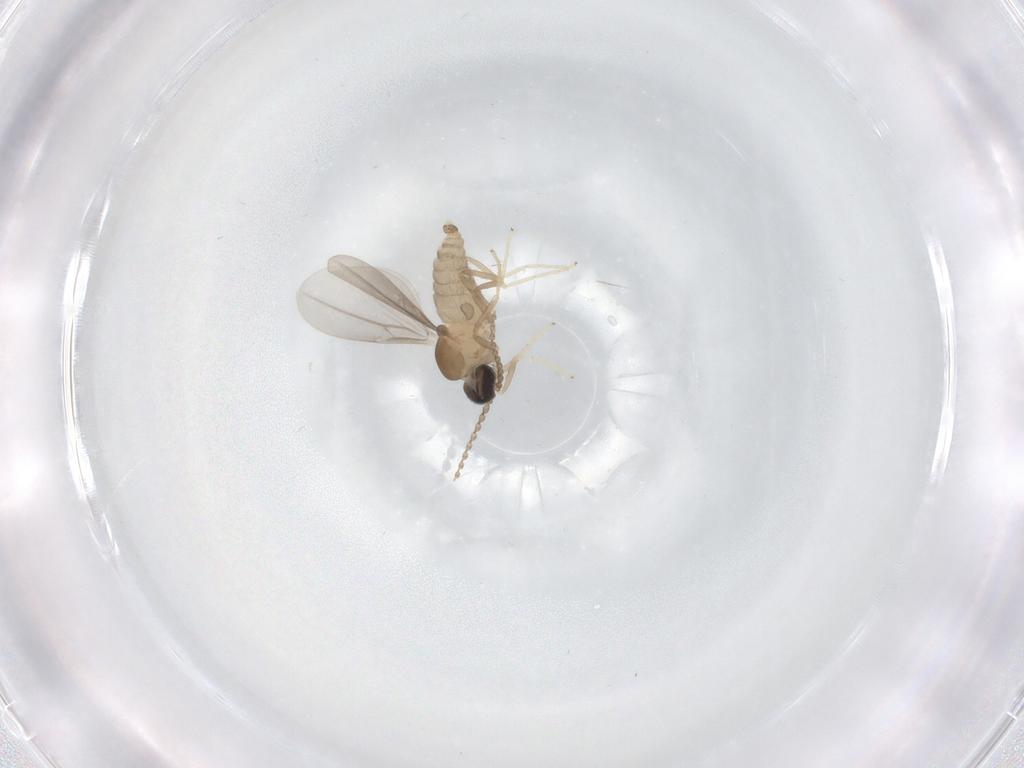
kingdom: Animalia
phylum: Arthropoda
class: Insecta
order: Diptera
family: Cecidomyiidae
